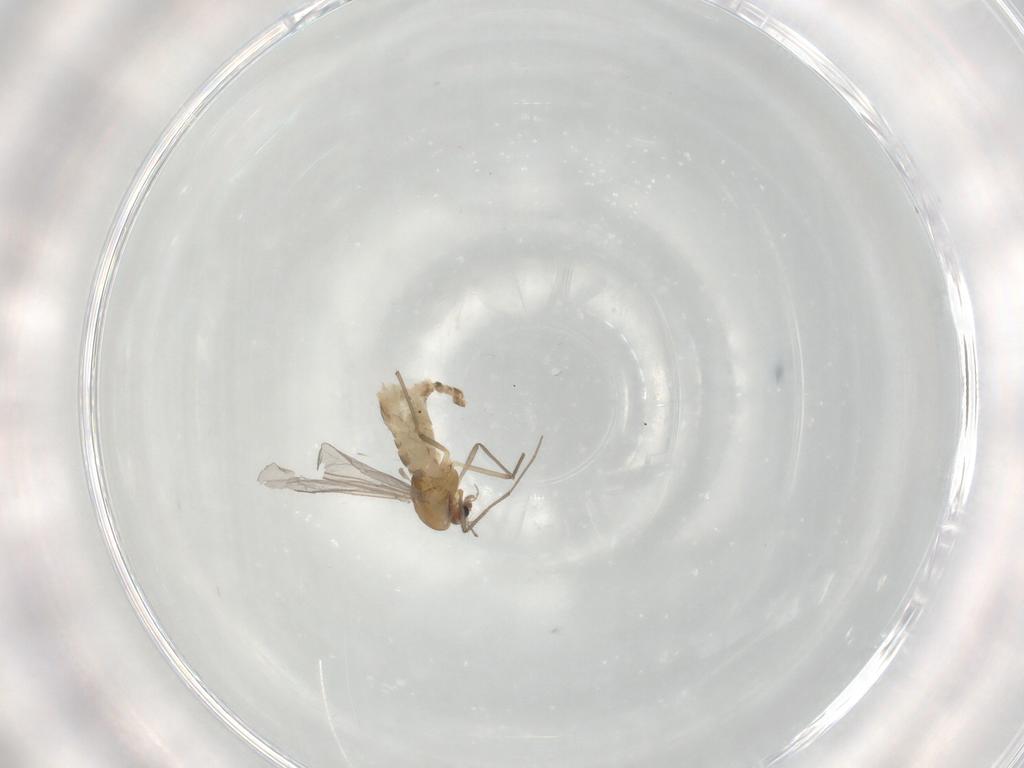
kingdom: Animalia
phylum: Arthropoda
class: Insecta
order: Diptera
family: Chironomidae
